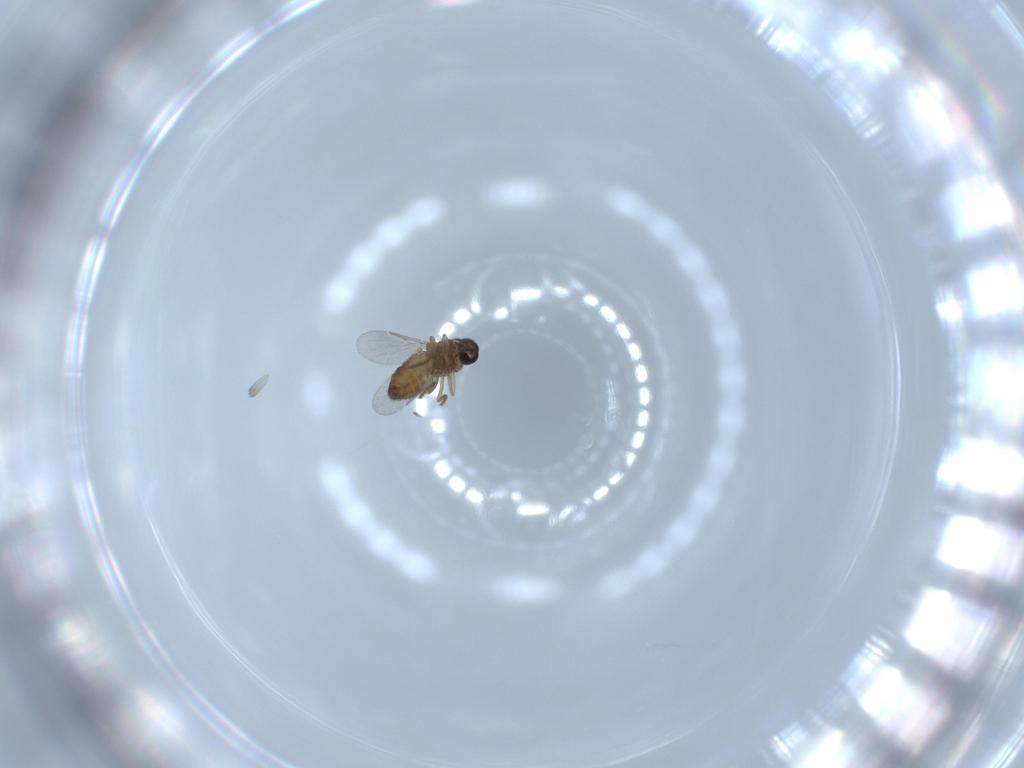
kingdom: Animalia
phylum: Arthropoda
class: Insecta
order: Diptera
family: Ceratopogonidae
